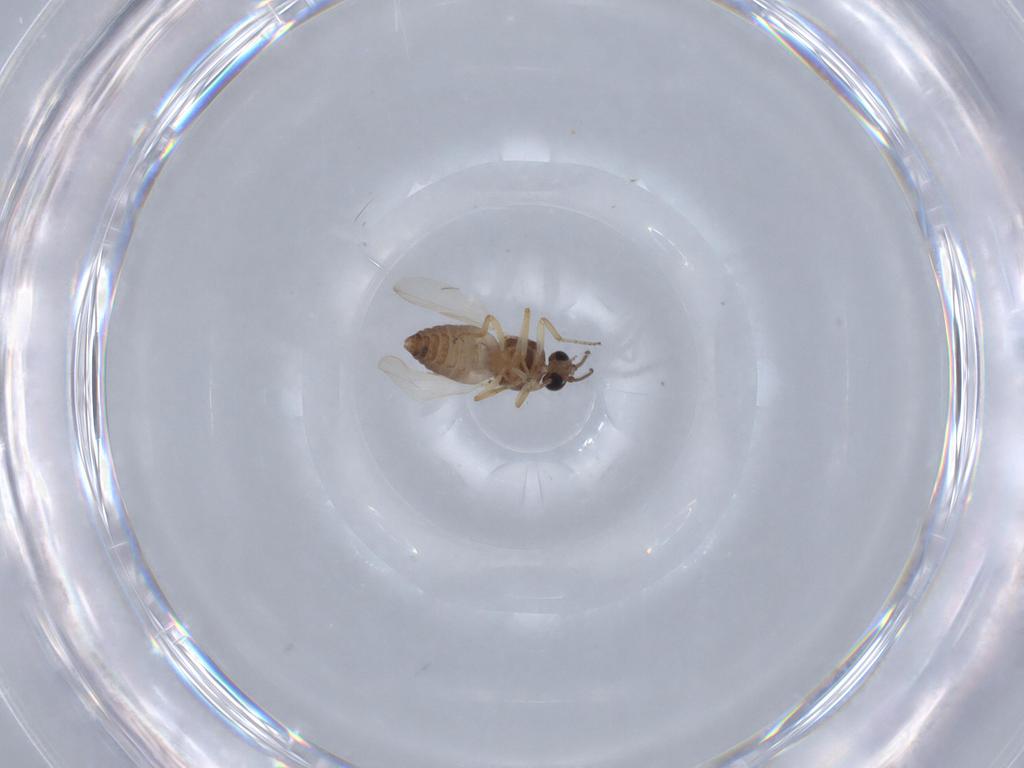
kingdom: Animalia
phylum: Arthropoda
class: Insecta
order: Diptera
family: Ceratopogonidae
